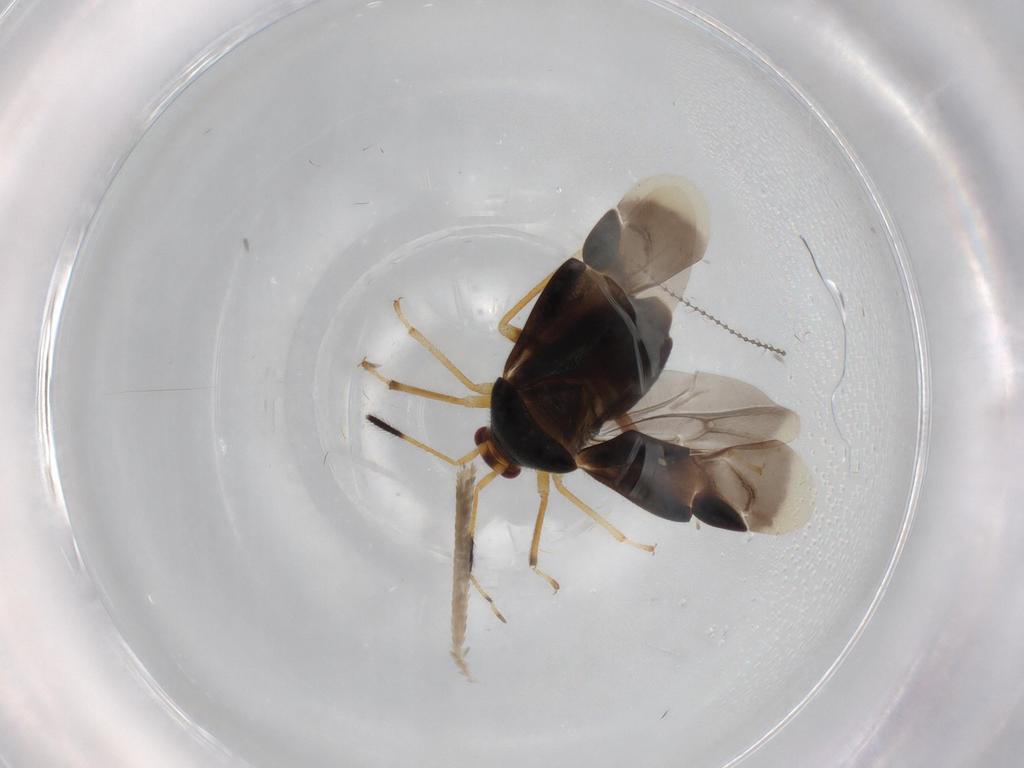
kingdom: Animalia
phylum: Arthropoda
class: Insecta
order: Hemiptera
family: Miridae
